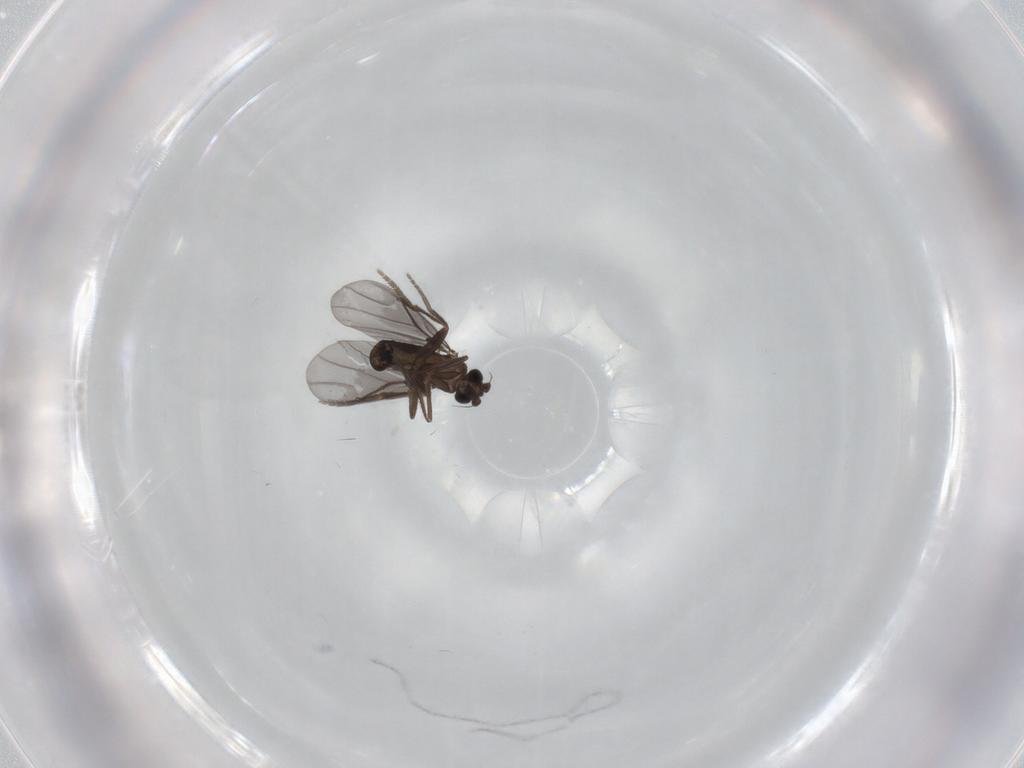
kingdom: Animalia
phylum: Arthropoda
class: Insecta
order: Diptera
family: Phoridae
